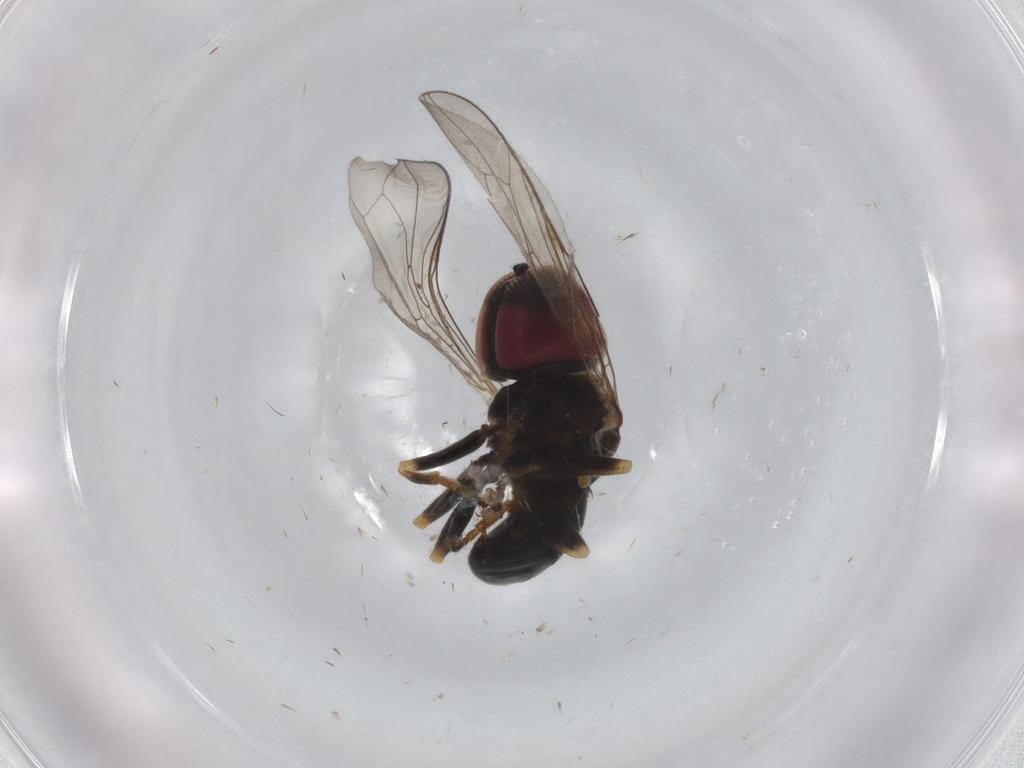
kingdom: Animalia
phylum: Arthropoda
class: Insecta
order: Diptera
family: Pipunculidae
